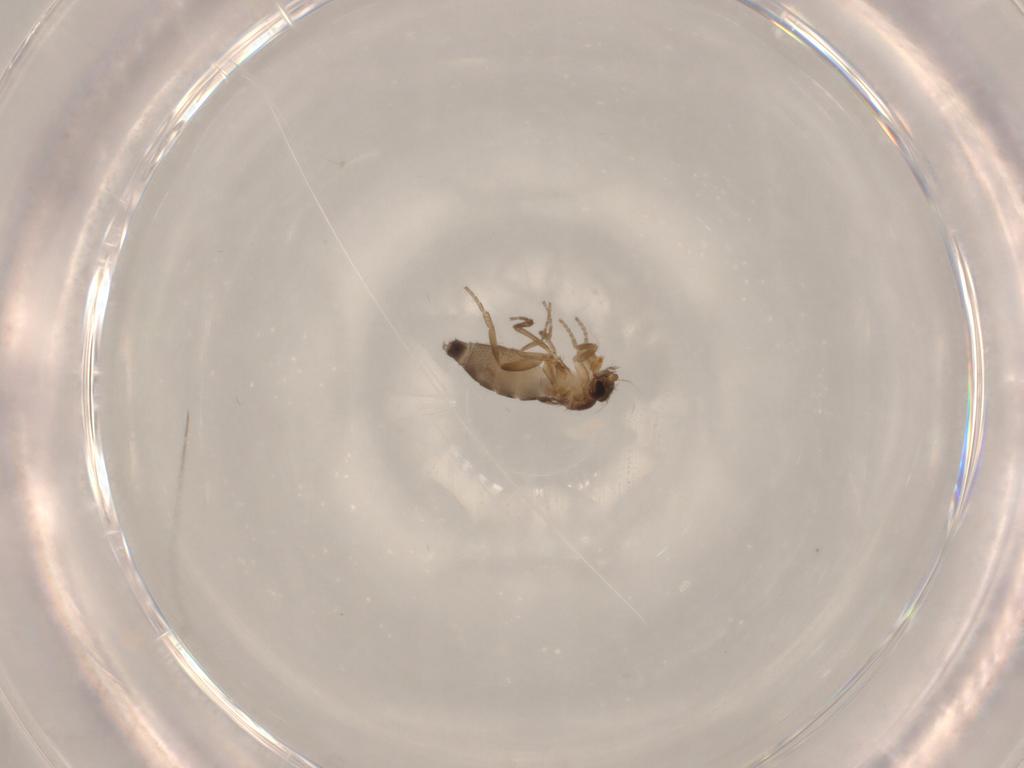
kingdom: Animalia
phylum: Arthropoda
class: Insecta
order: Diptera
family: Phoridae
